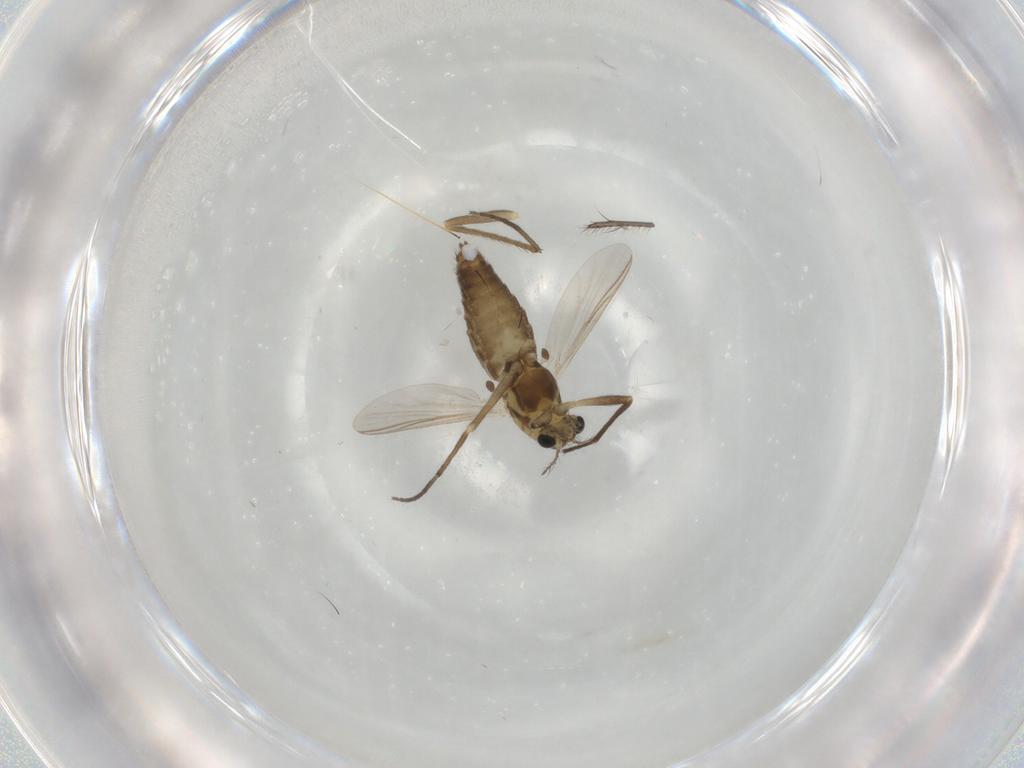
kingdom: Animalia
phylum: Arthropoda
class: Insecta
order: Diptera
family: Chironomidae
